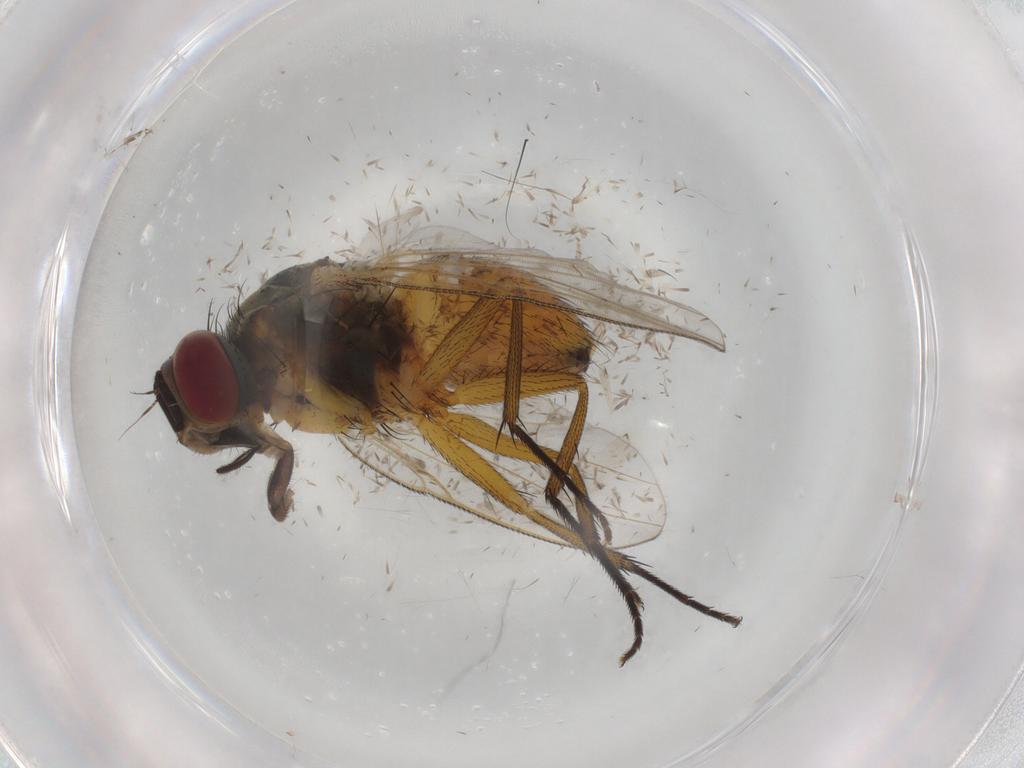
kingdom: Animalia
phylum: Arthropoda
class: Insecta
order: Diptera
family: Muscidae
